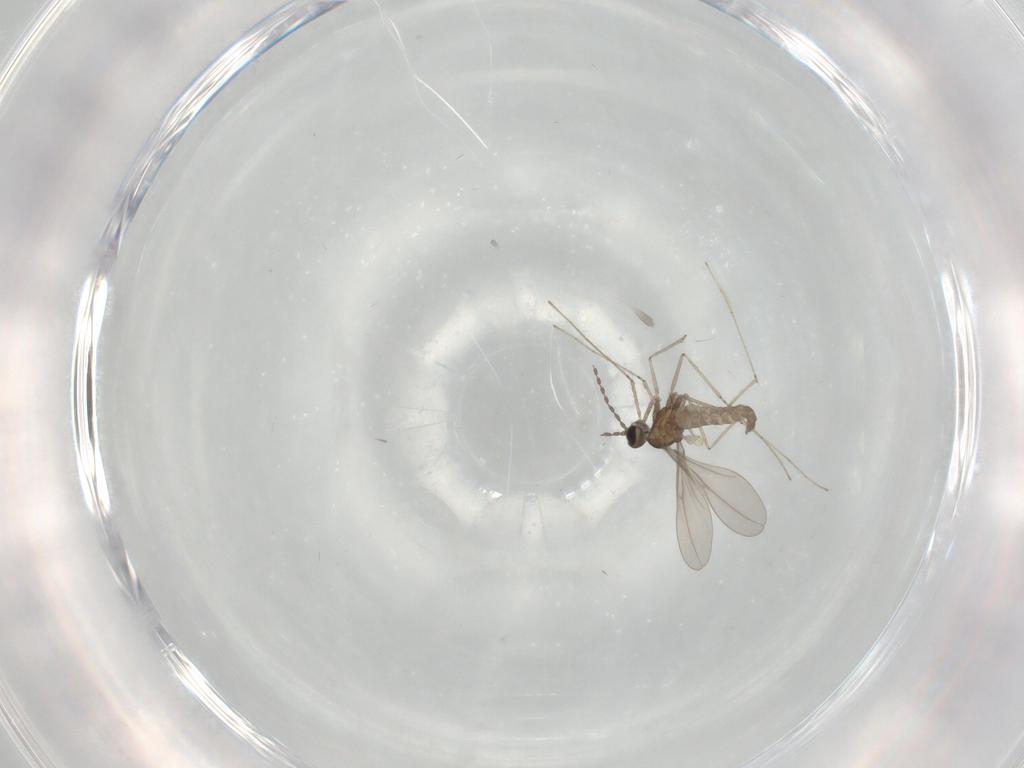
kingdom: Animalia
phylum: Arthropoda
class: Insecta
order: Diptera
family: Cecidomyiidae
